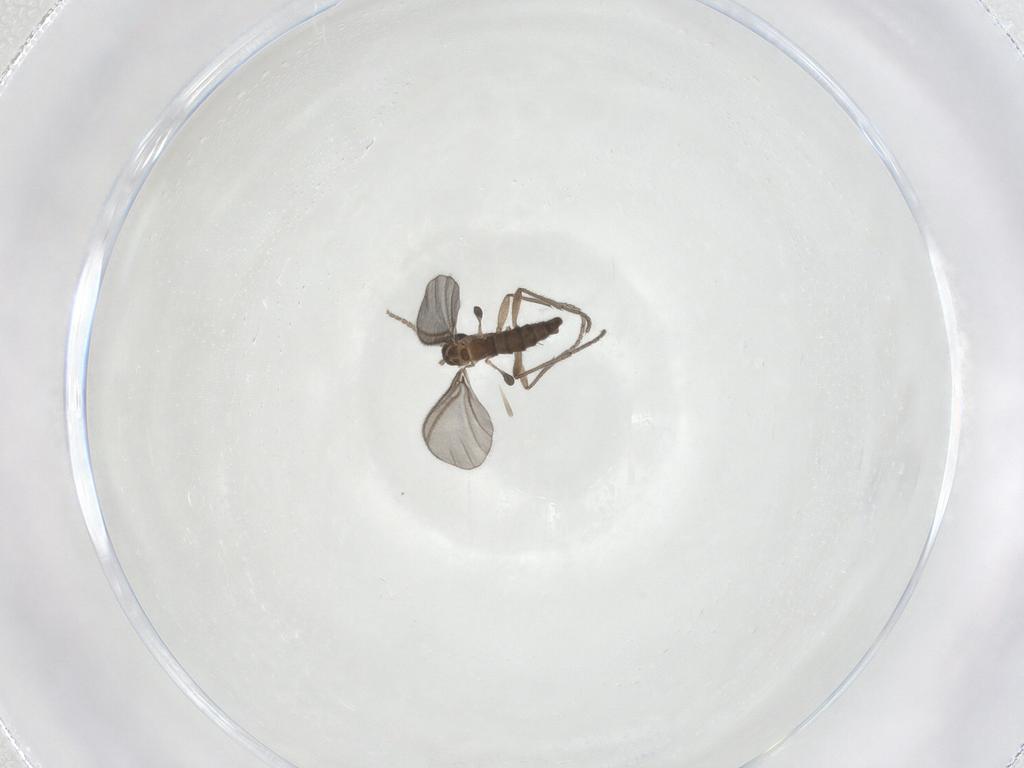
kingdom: Animalia
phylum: Arthropoda
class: Insecta
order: Diptera
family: Sciaridae
